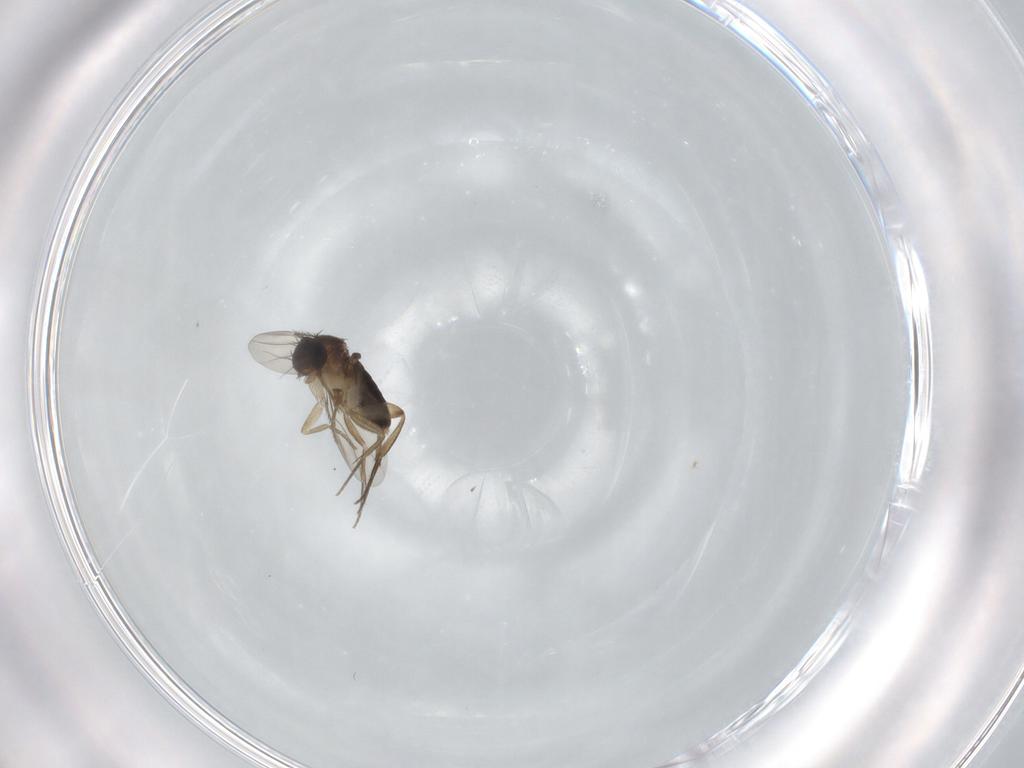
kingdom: Animalia
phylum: Arthropoda
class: Insecta
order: Diptera
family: Phoridae
